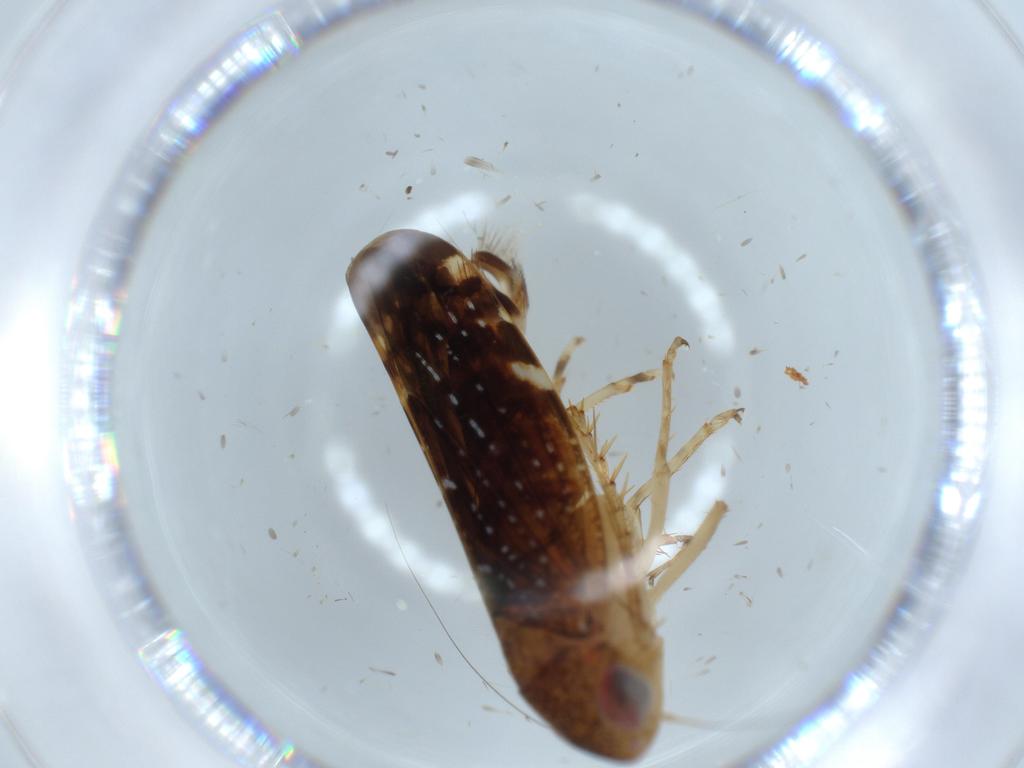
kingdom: Animalia
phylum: Arthropoda
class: Insecta
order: Hemiptera
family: Cicadellidae
